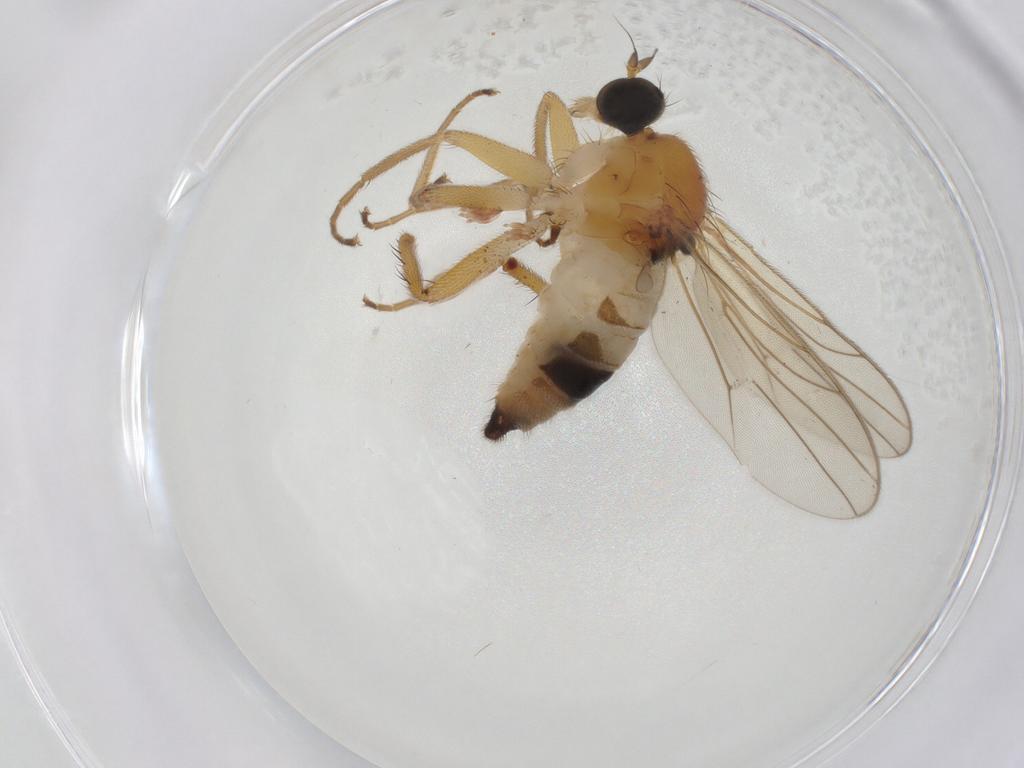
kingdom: Animalia
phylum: Arthropoda
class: Insecta
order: Diptera
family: Hybotidae
